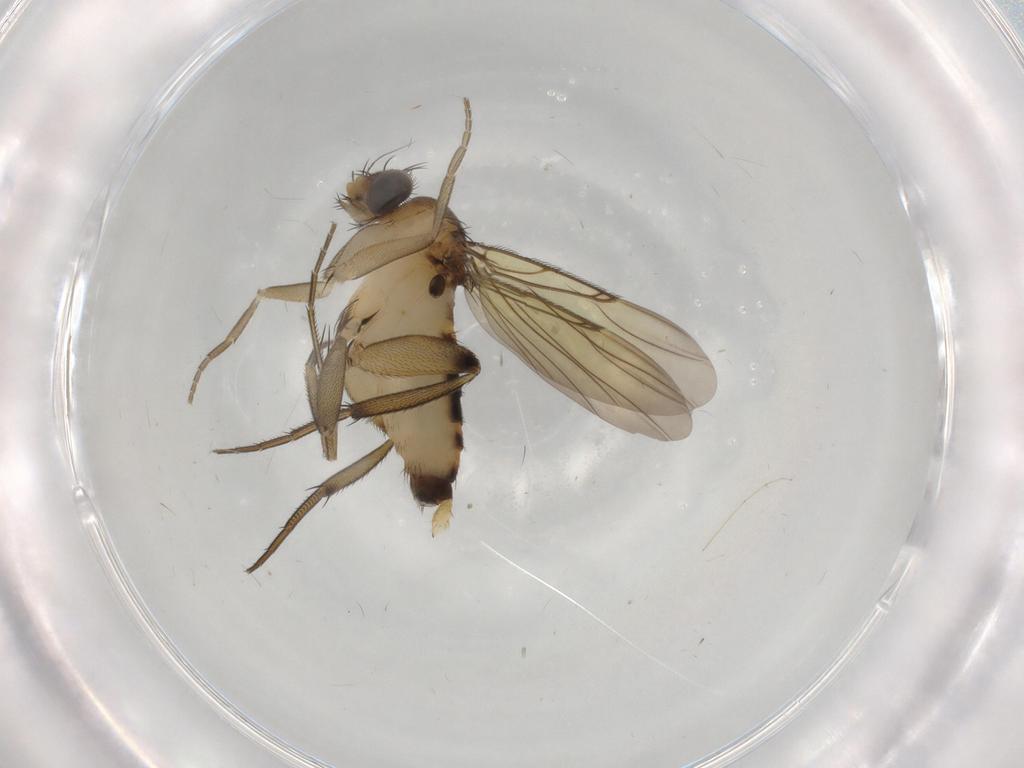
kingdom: Animalia
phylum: Arthropoda
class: Insecta
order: Diptera
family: Phoridae
